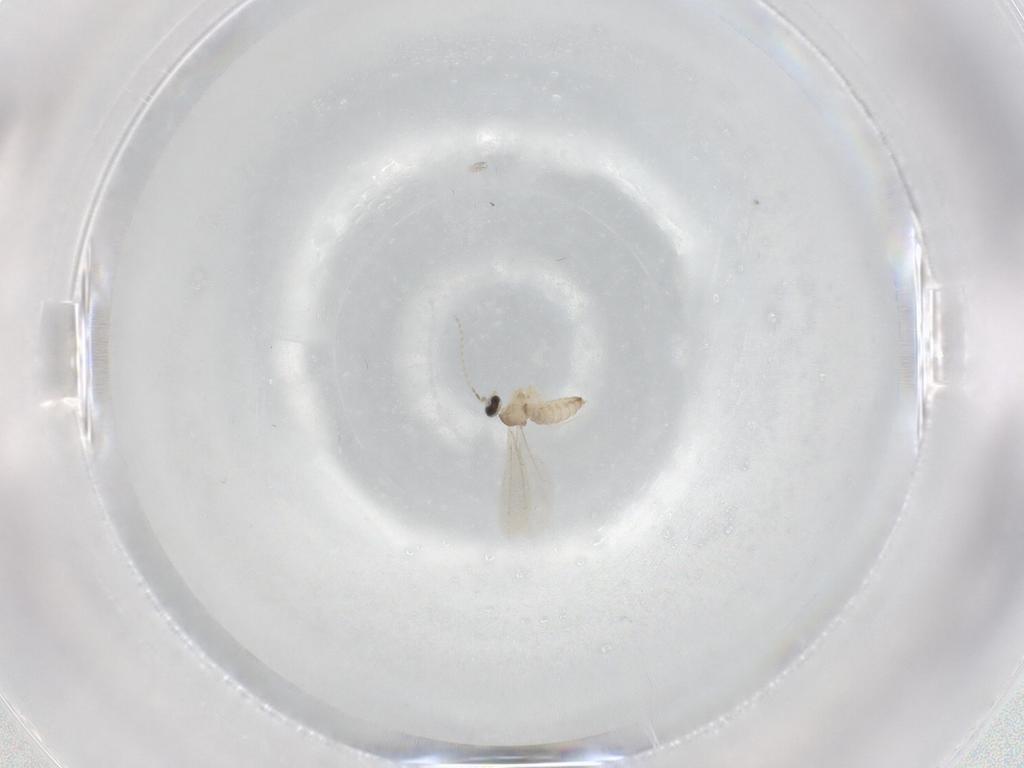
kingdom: Animalia
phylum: Arthropoda
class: Insecta
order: Diptera
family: Cecidomyiidae
